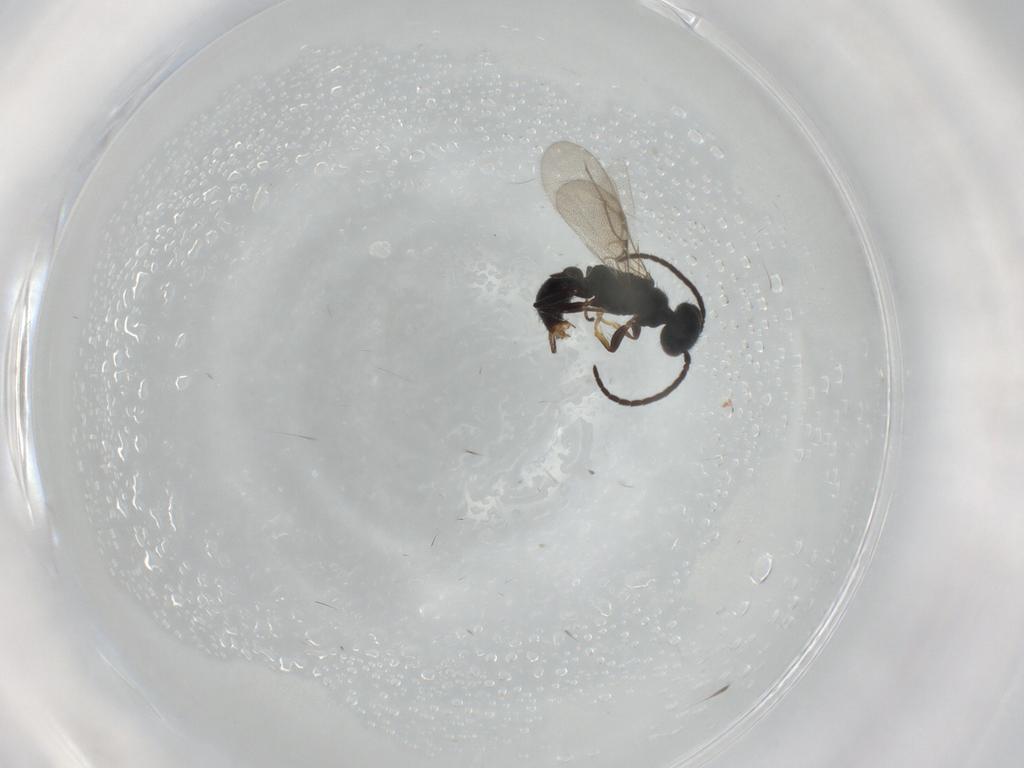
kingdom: Animalia
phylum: Arthropoda
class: Insecta
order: Hymenoptera
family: Bethylidae
